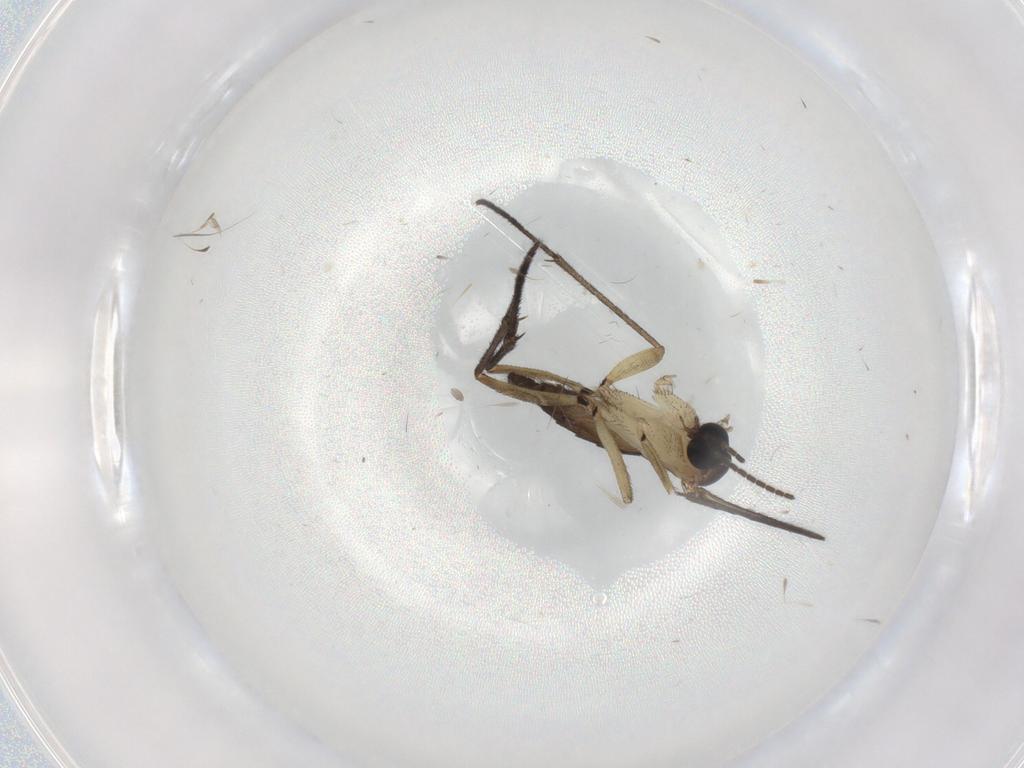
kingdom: Animalia
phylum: Arthropoda
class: Insecta
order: Diptera
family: Sciaridae
